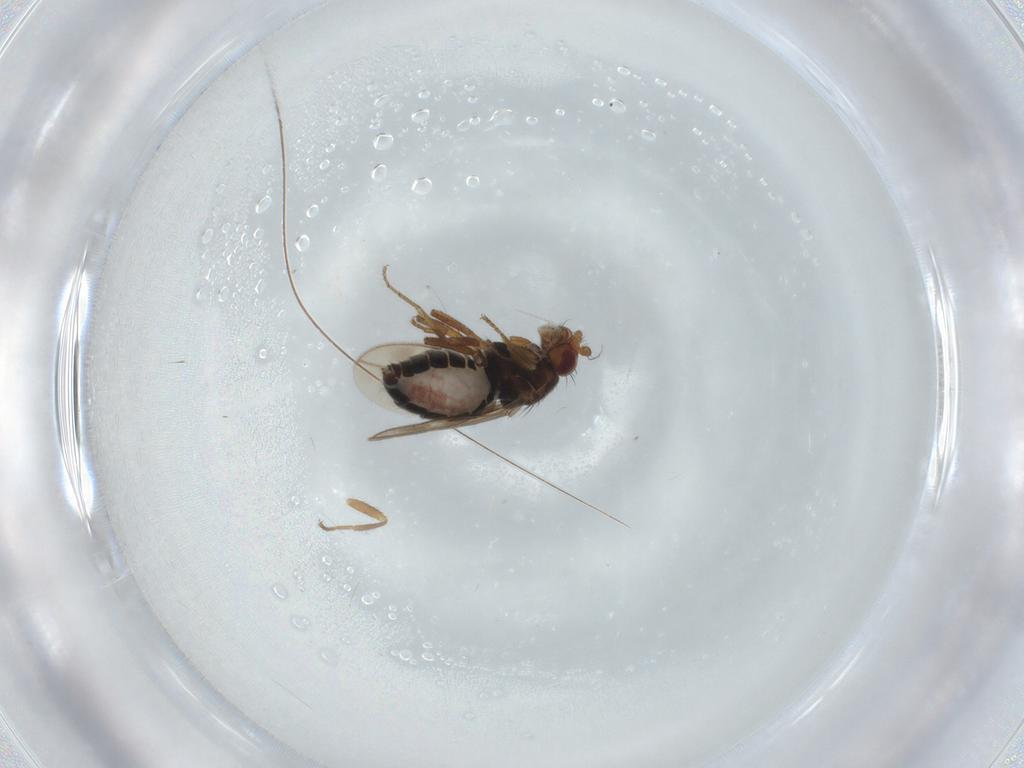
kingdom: Animalia
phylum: Arthropoda
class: Insecta
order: Diptera
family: Sphaeroceridae
